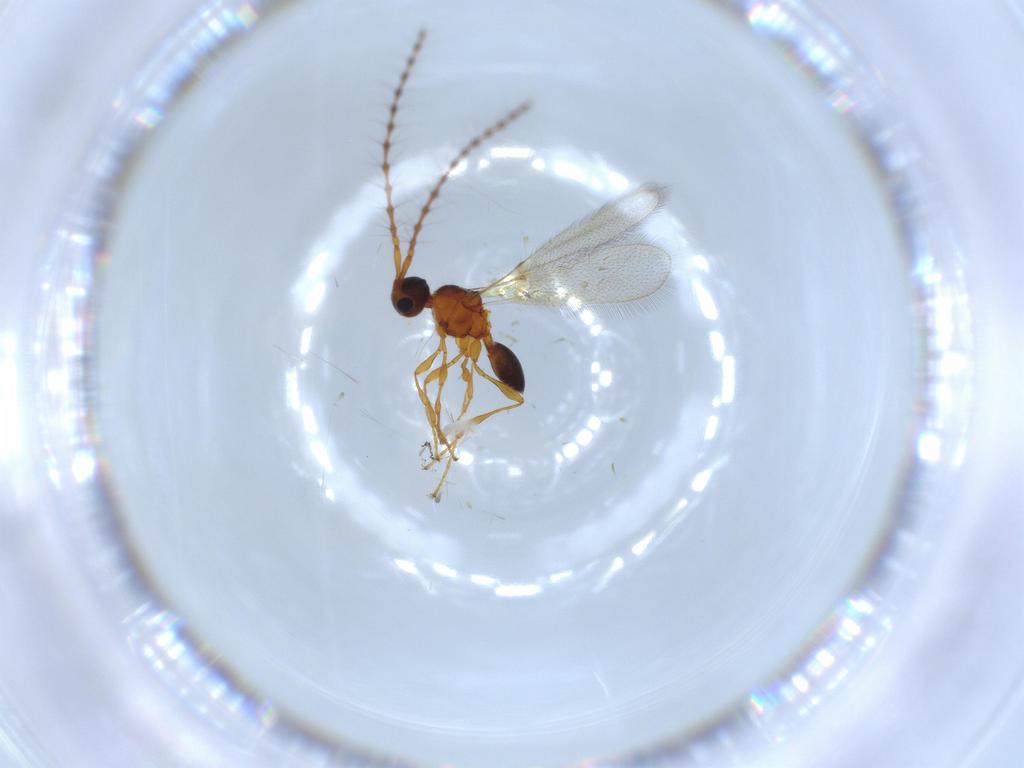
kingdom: Animalia
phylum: Arthropoda
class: Insecta
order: Hymenoptera
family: Diapriidae
